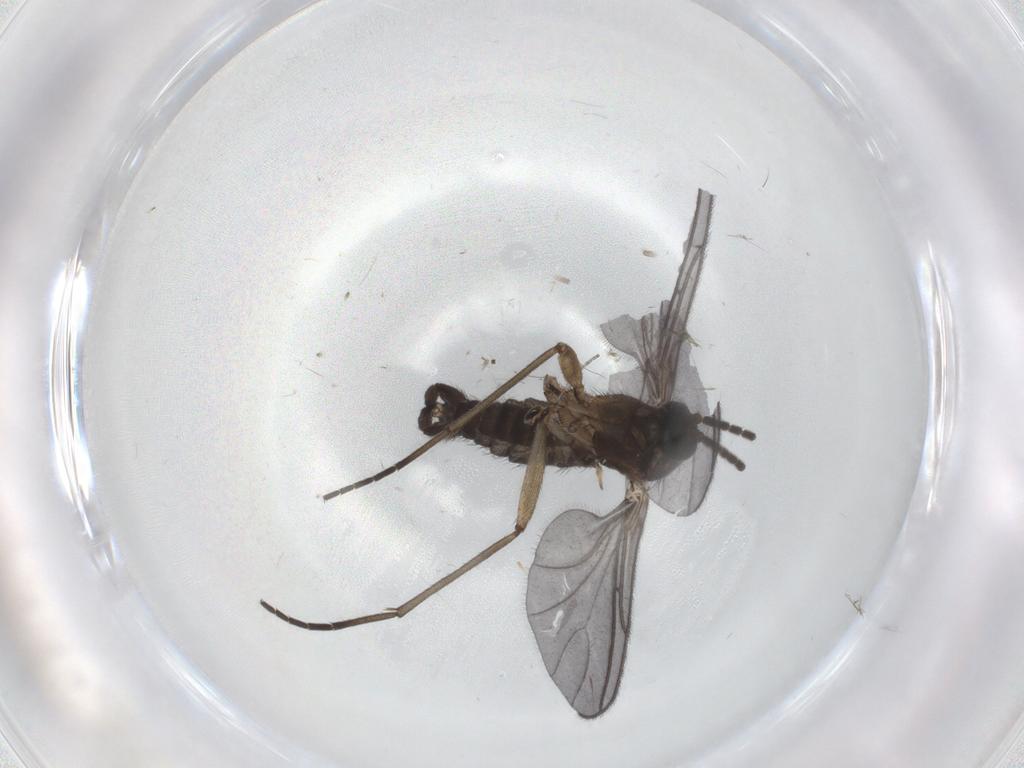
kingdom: Animalia
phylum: Arthropoda
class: Insecta
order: Diptera
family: Sciaridae
